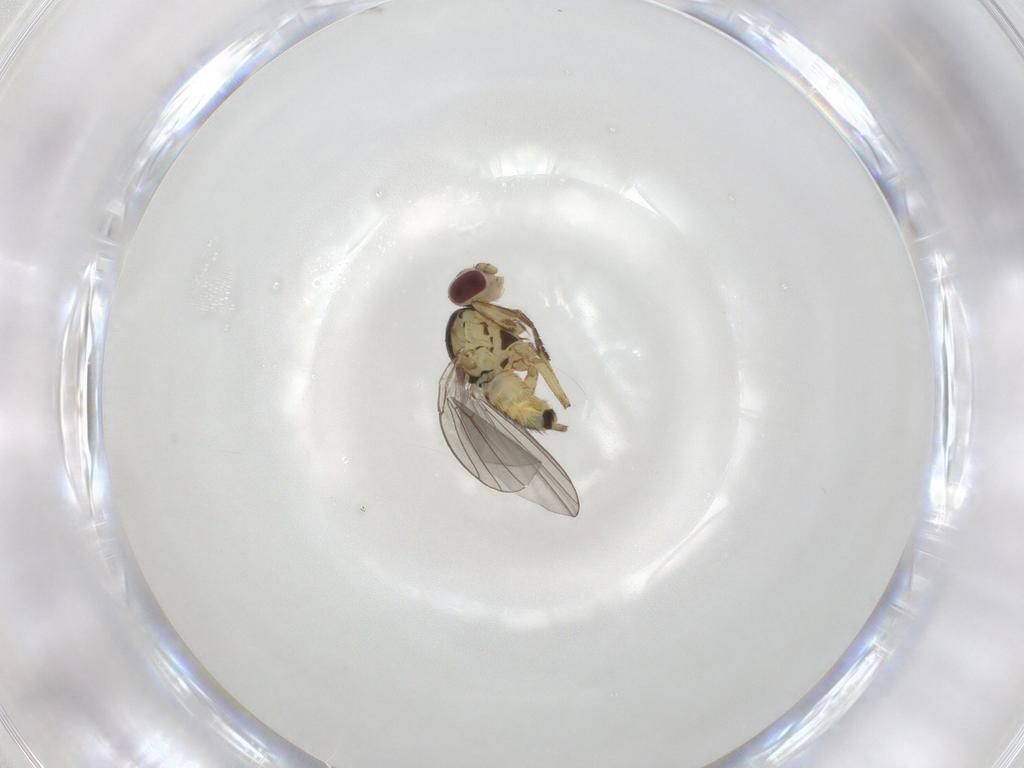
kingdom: Animalia
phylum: Arthropoda
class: Insecta
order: Diptera
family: Agromyzidae
